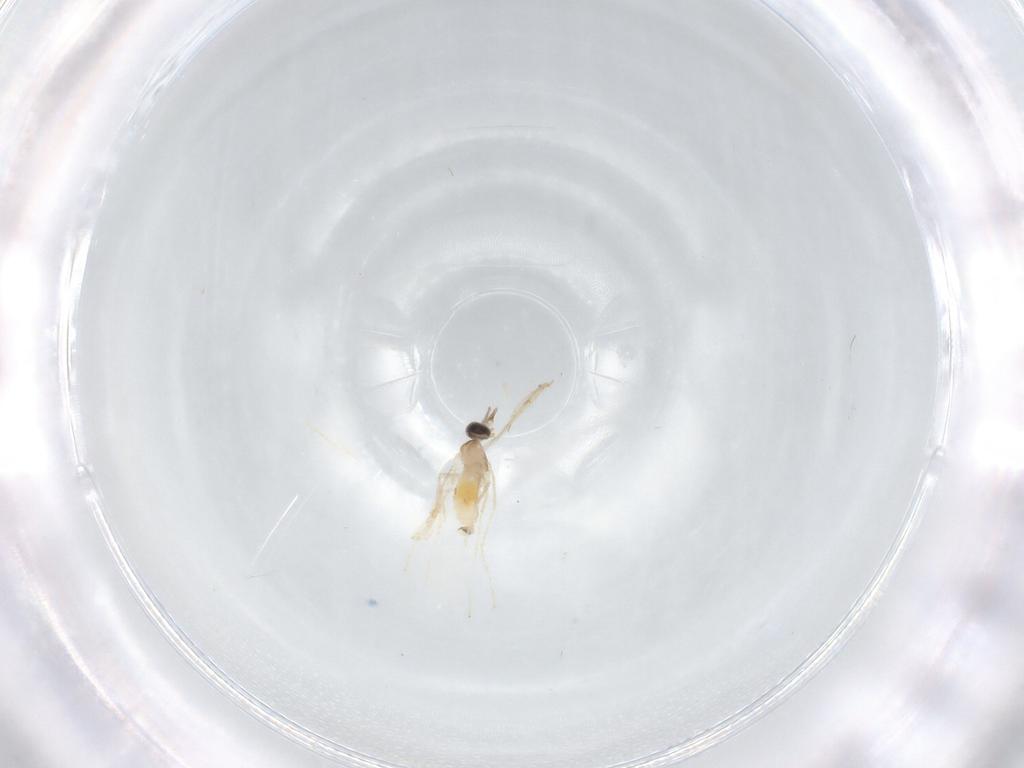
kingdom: Animalia
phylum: Arthropoda
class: Insecta
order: Diptera
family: Cecidomyiidae
